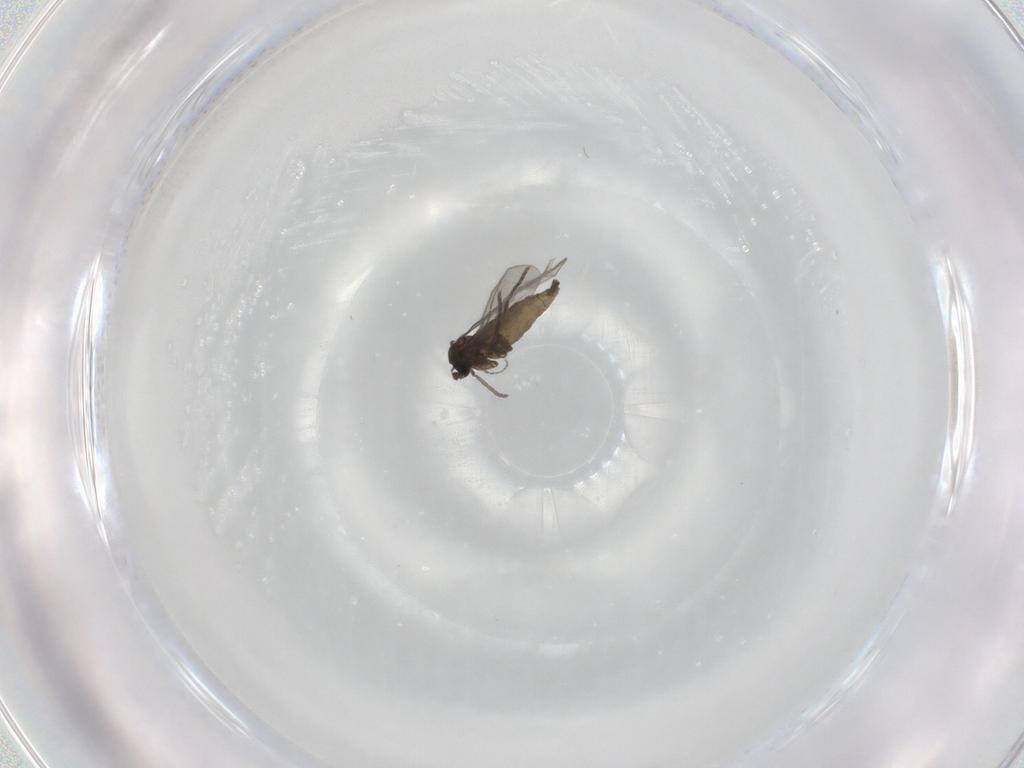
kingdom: Animalia
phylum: Arthropoda
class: Insecta
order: Diptera
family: Sciaridae
